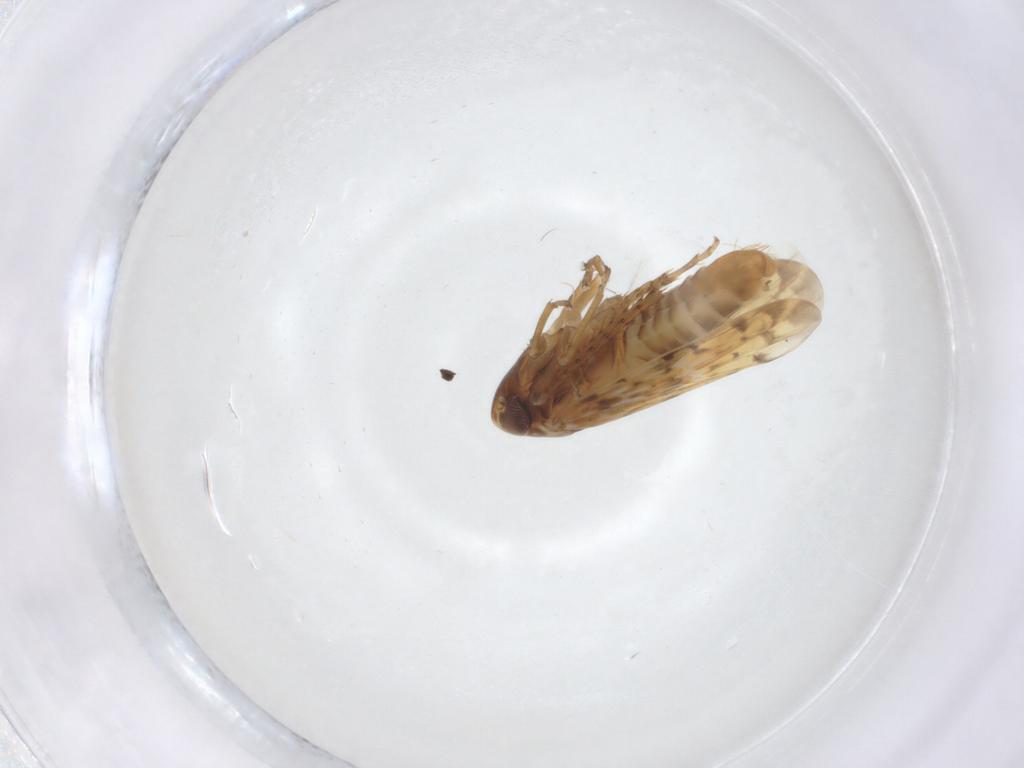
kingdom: Animalia
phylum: Arthropoda
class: Insecta
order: Hemiptera
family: Cicadellidae
